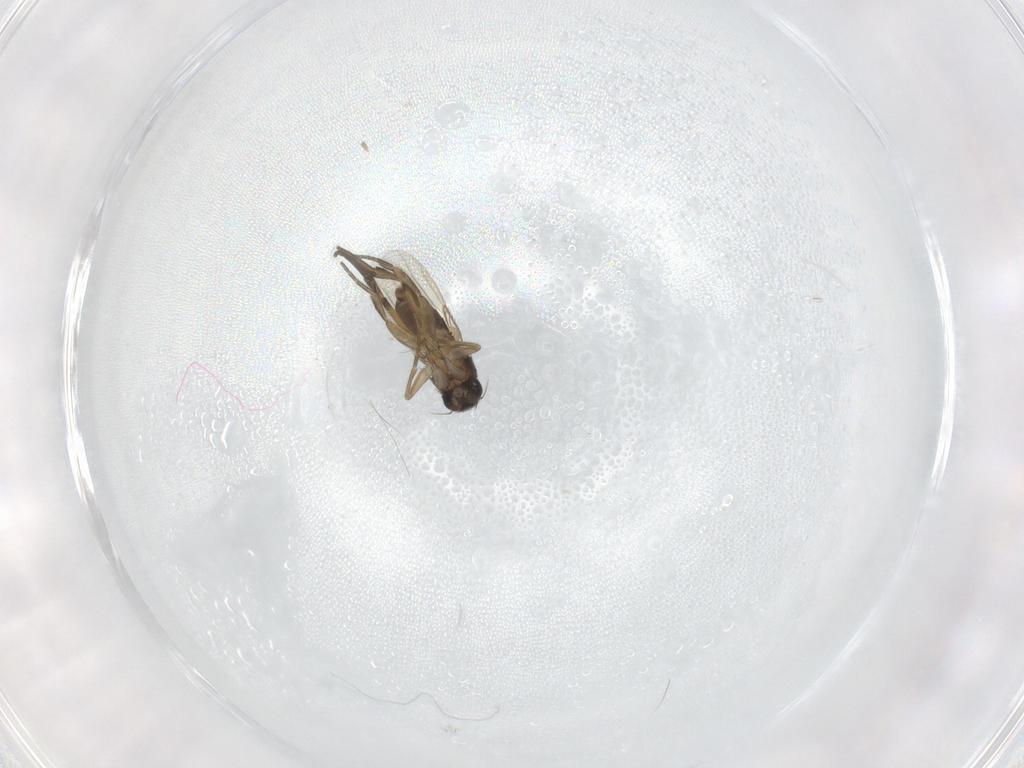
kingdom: Animalia
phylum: Arthropoda
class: Insecta
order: Diptera
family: Phoridae
